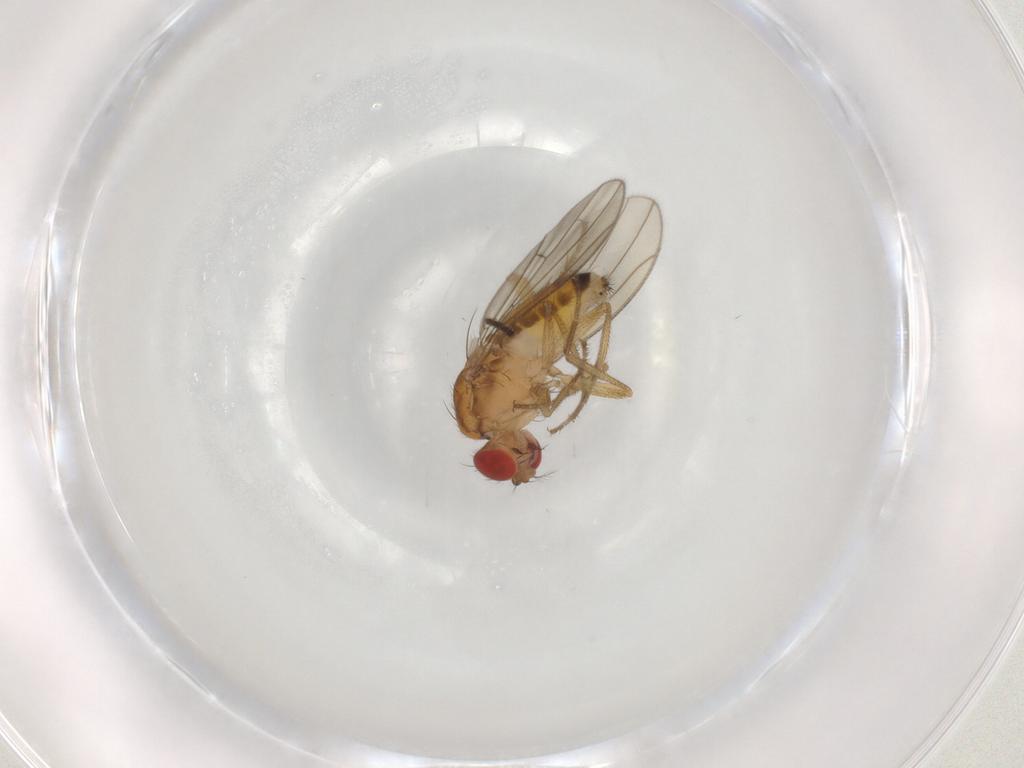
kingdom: Animalia
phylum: Arthropoda
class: Insecta
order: Diptera
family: Drosophilidae
